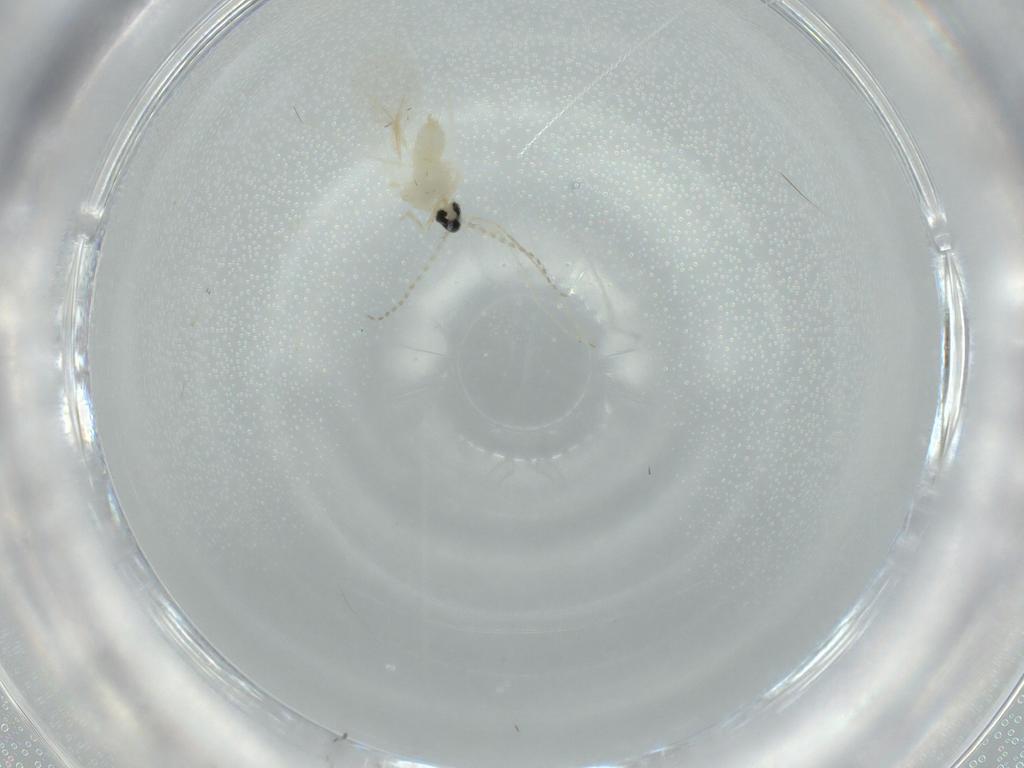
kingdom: Animalia
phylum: Arthropoda
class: Insecta
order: Diptera
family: Cecidomyiidae
